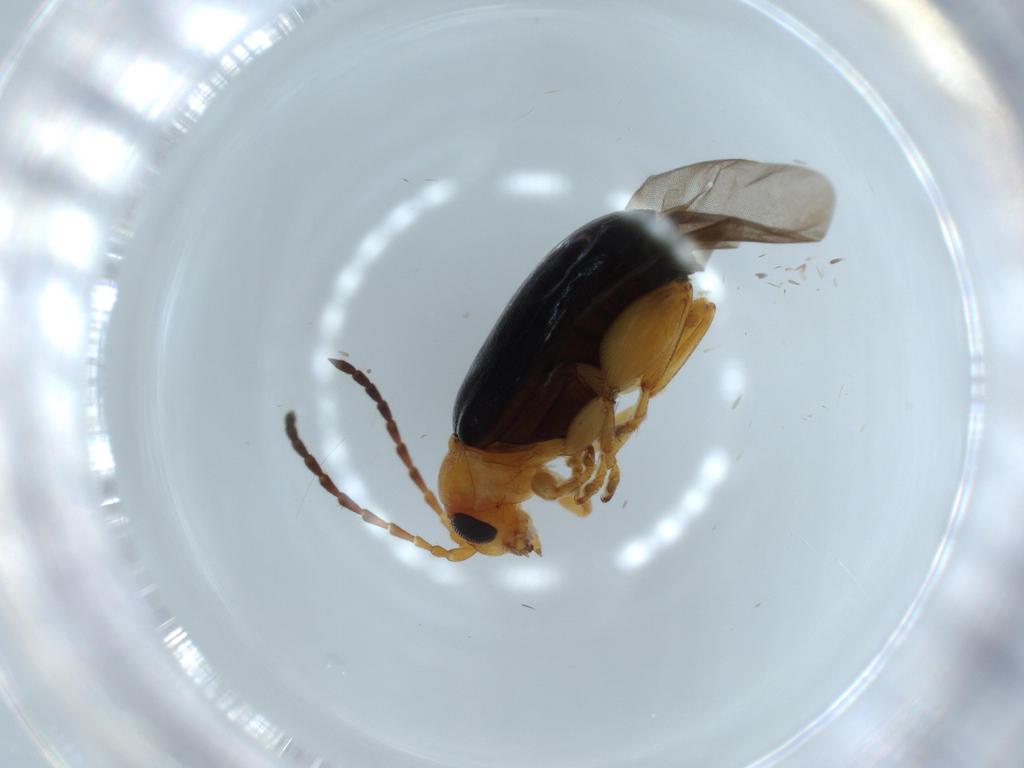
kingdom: Animalia
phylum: Arthropoda
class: Insecta
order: Coleoptera
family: Chrysomelidae
